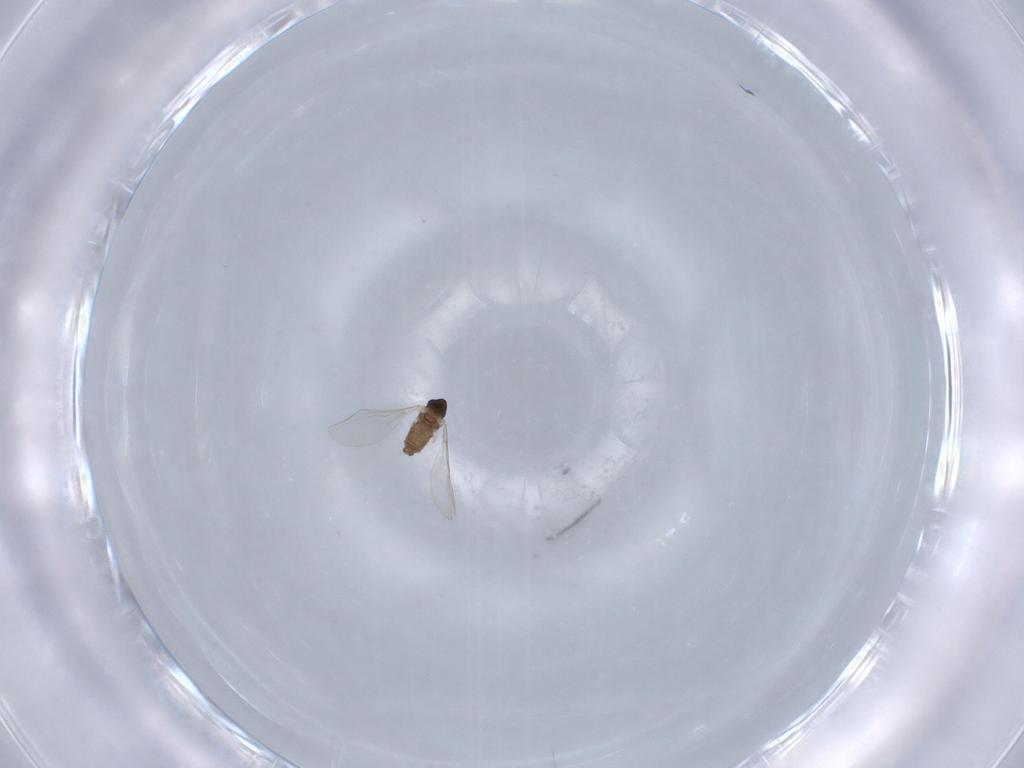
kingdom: Animalia
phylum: Arthropoda
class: Insecta
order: Diptera
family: Cecidomyiidae
